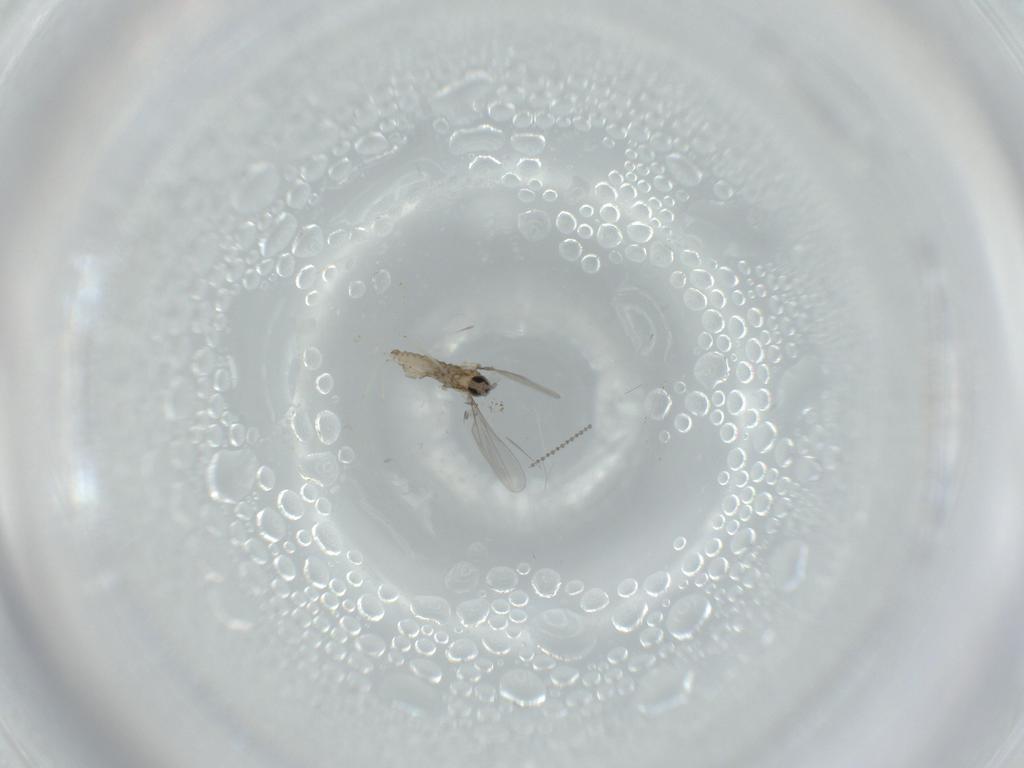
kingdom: Animalia
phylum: Arthropoda
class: Insecta
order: Diptera
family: Cecidomyiidae
